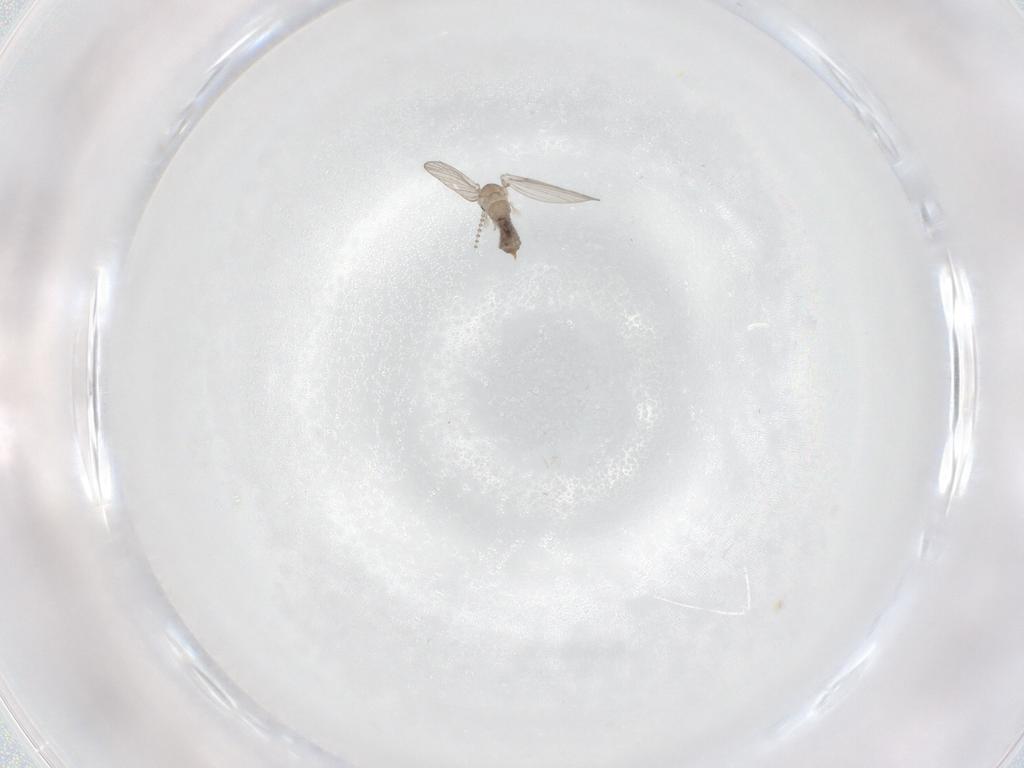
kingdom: Animalia
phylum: Arthropoda
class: Insecta
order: Diptera
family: Psychodidae
